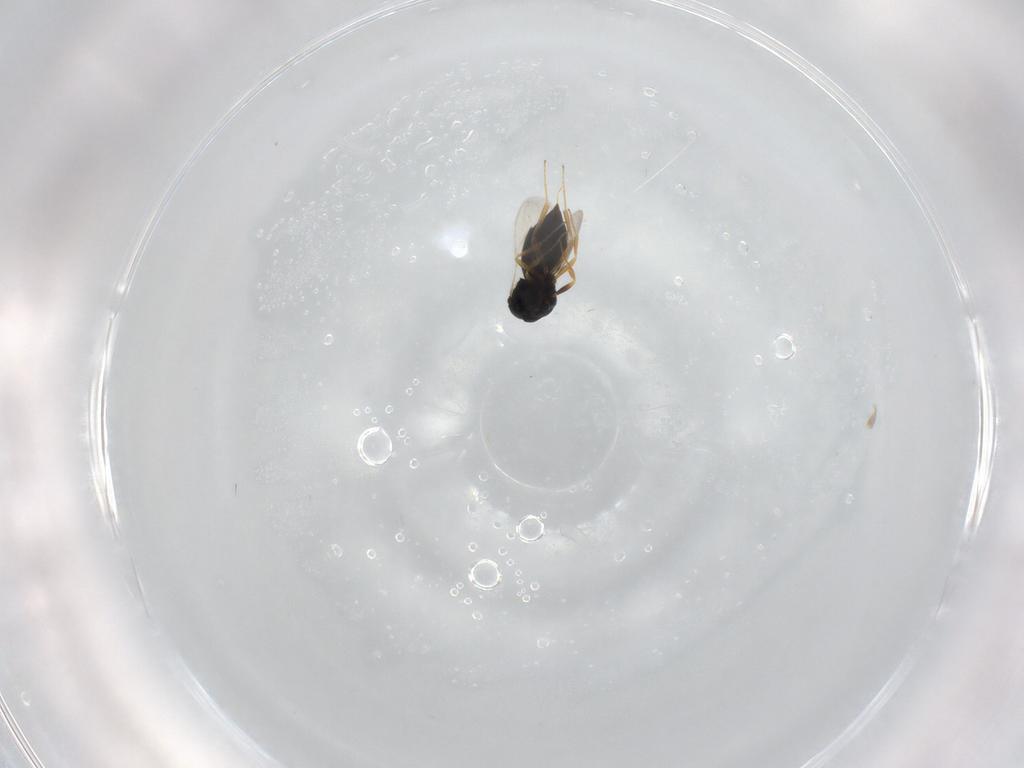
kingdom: Animalia
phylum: Arthropoda
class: Insecta
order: Hymenoptera
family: Scelionidae
